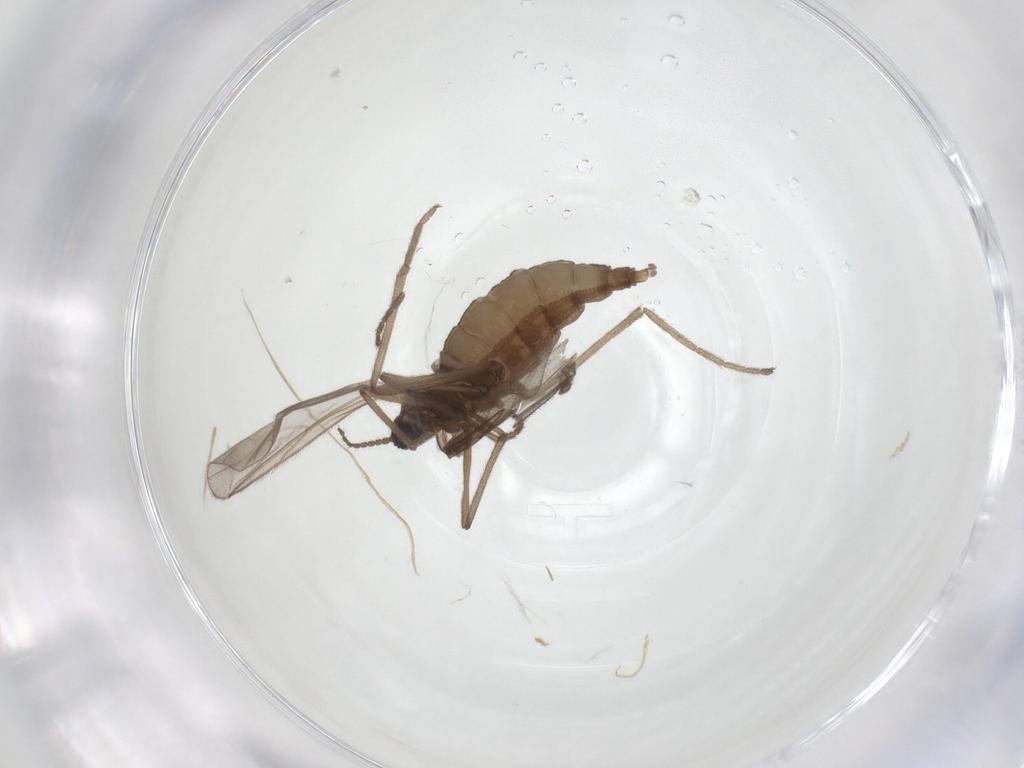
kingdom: Animalia
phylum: Arthropoda
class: Insecta
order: Diptera
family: Cecidomyiidae
